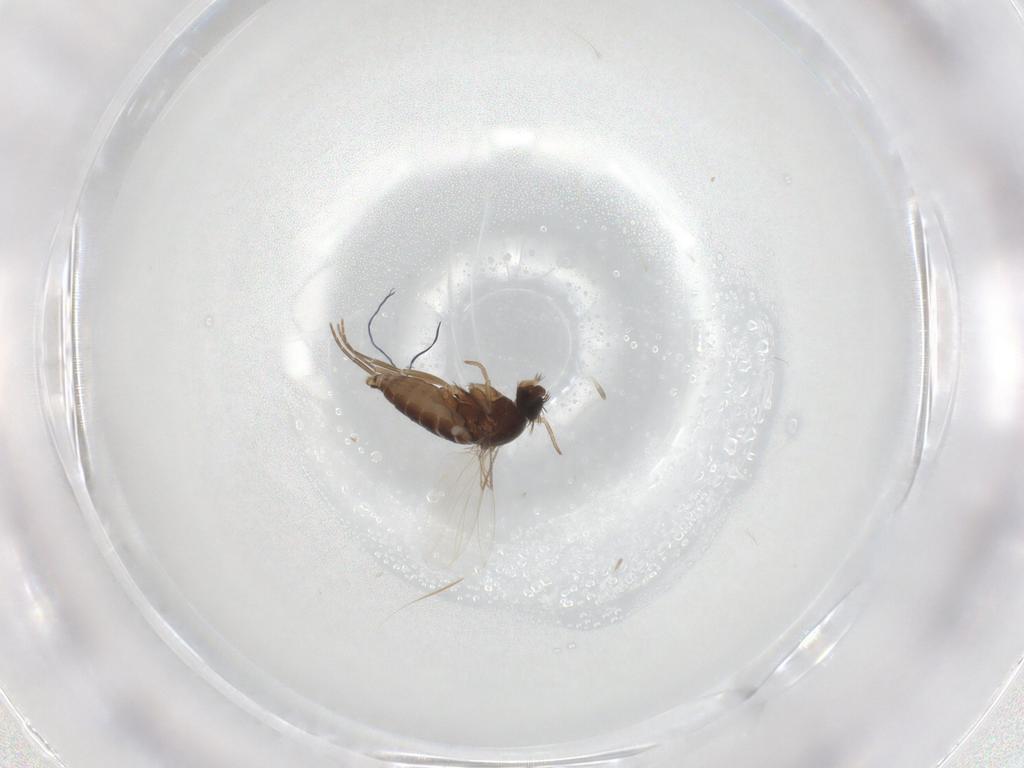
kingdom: Animalia
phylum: Arthropoda
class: Insecta
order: Diptera
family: Phoridae
